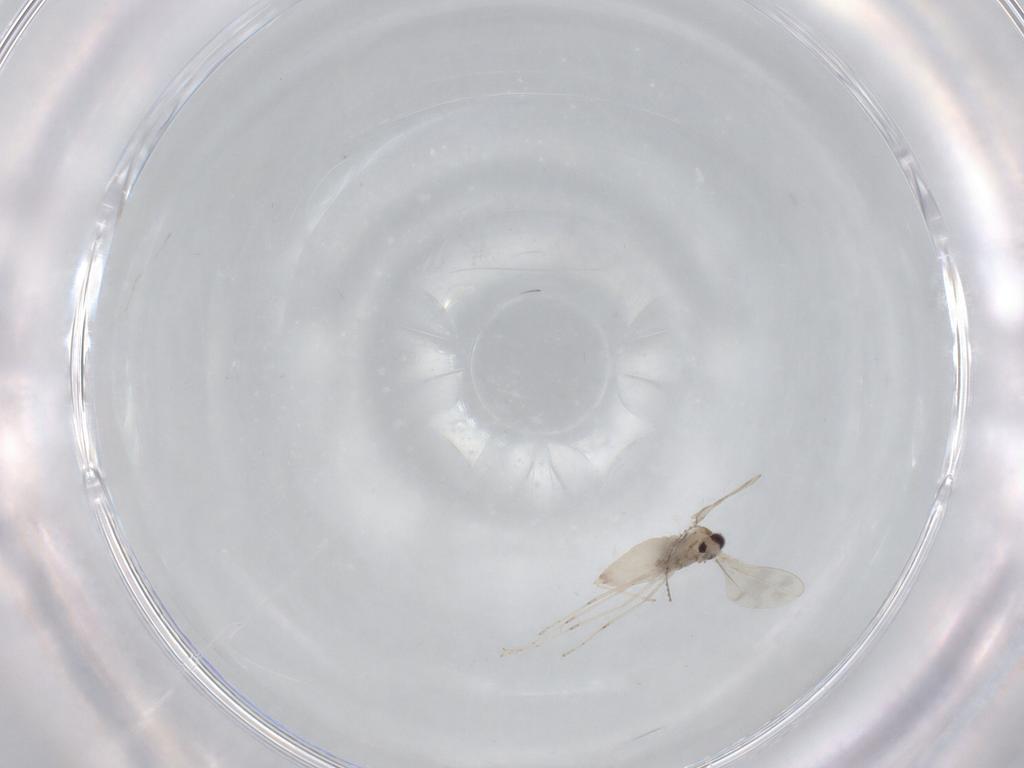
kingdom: Animalia
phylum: Arthropoda
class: Insecta
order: Diptera
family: Cecidomyiidae
